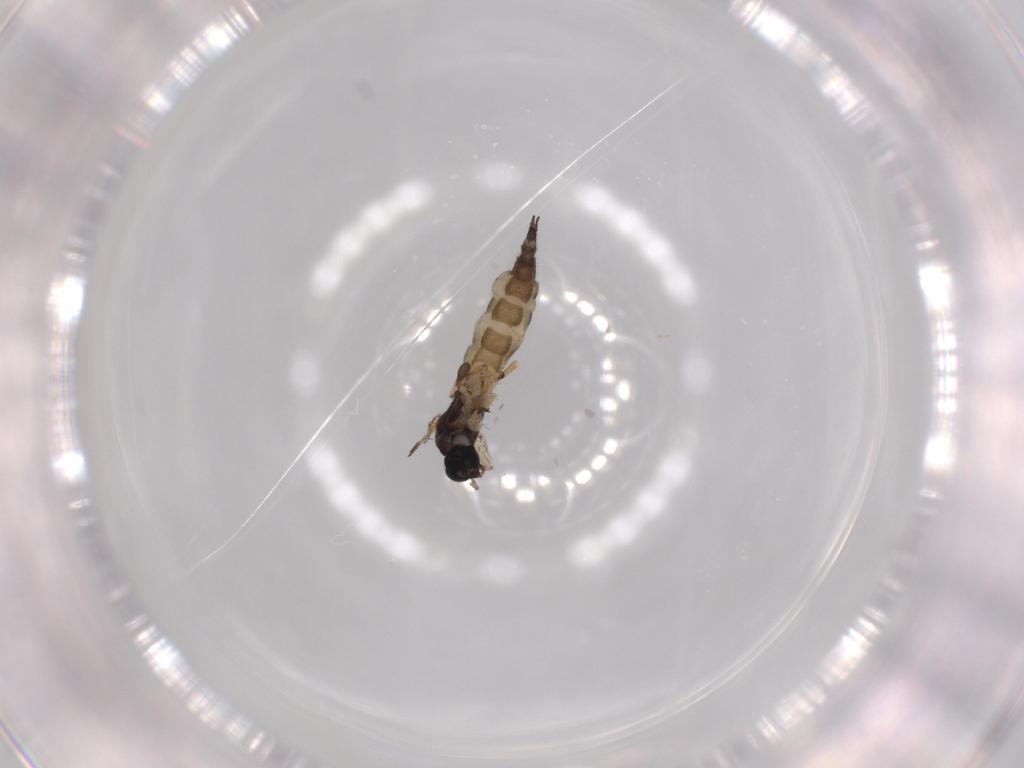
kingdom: Animalia
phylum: Arthropoda
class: Insecta
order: Diptera
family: Sciaridae
